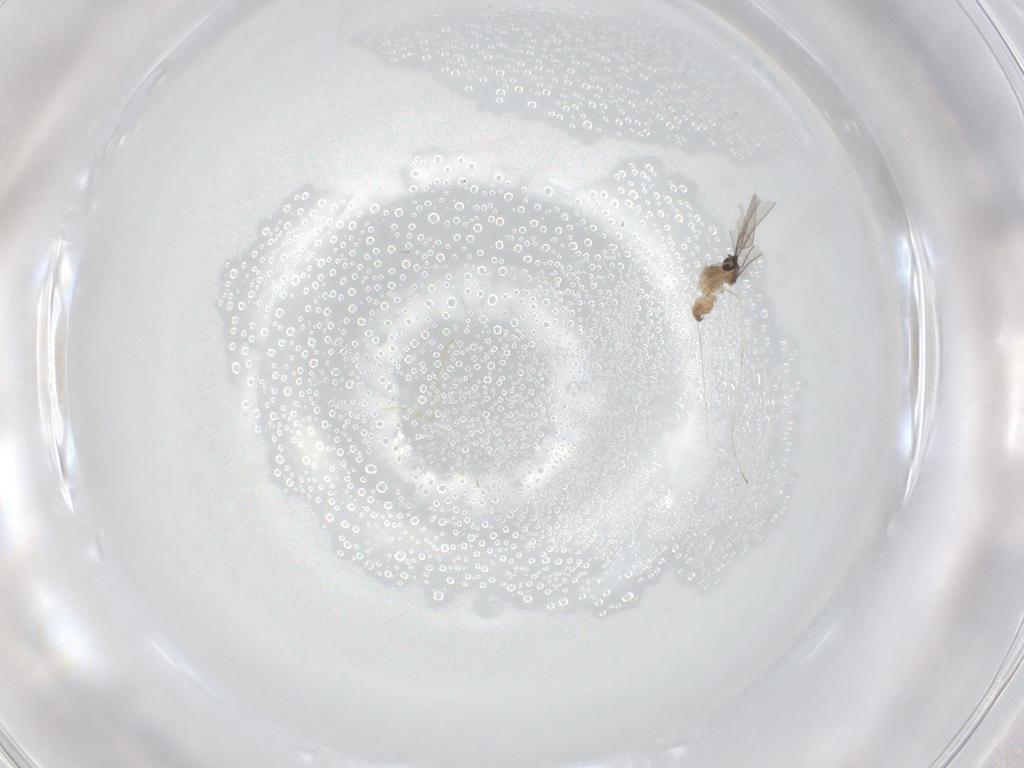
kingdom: Animalia
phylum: Arthropoda
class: Insecta
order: Diptera
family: Cecidomyiidae
